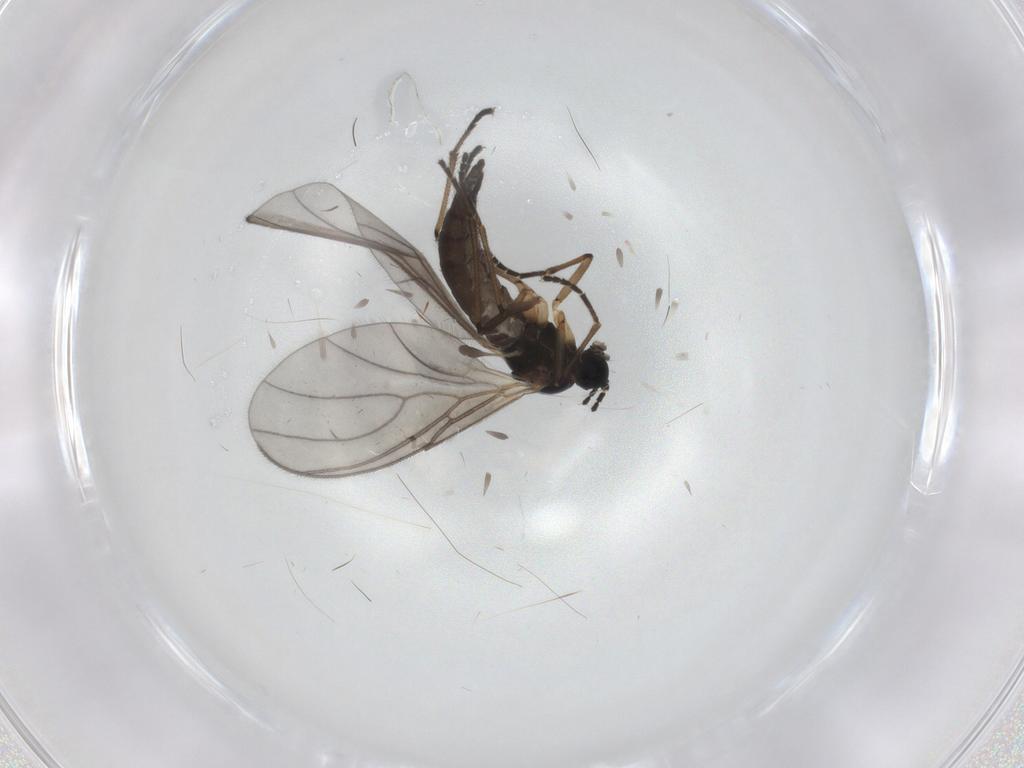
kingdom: Animalia
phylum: Arthropoda
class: Insecta
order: Diptera
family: Sciaridae
